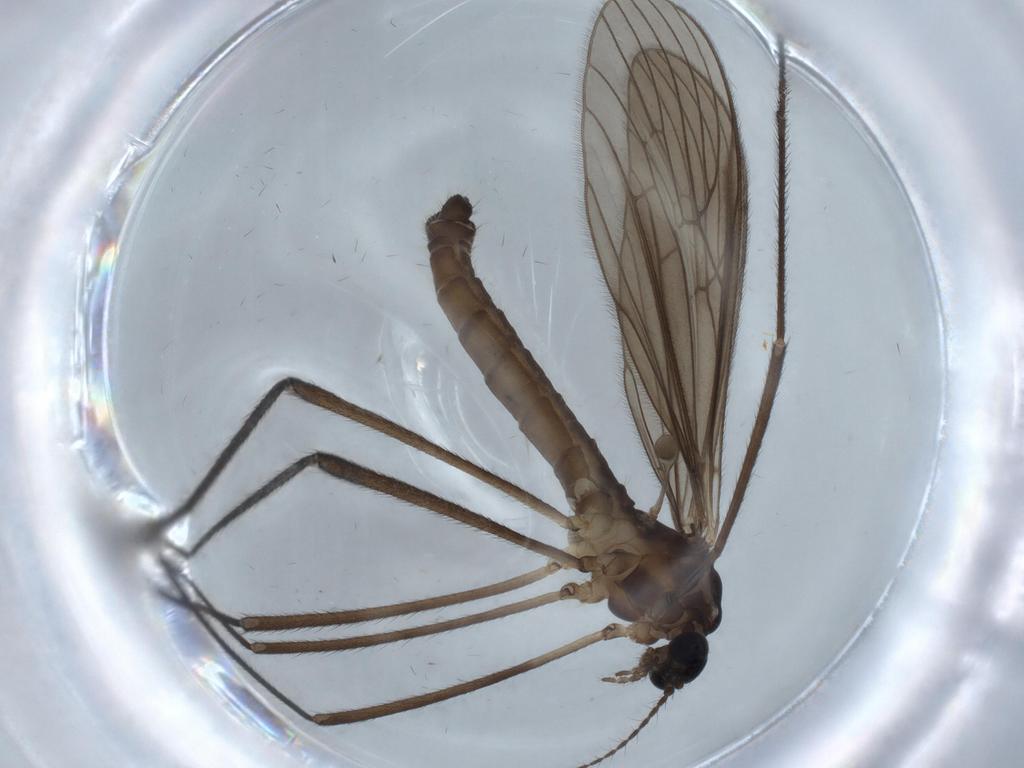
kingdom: Animalia
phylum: Arthropoda
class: Insecta
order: Diptera
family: Limoniidae
